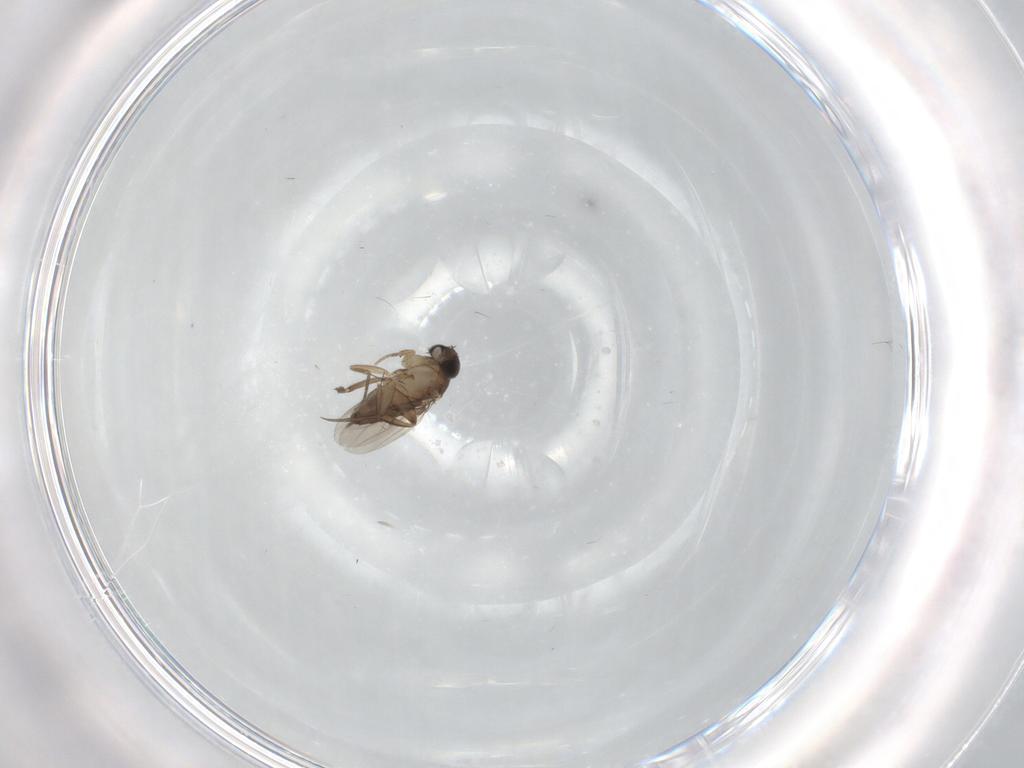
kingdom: Animalia
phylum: Arthropoda
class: Insecta
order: Diptera
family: Phoridae
